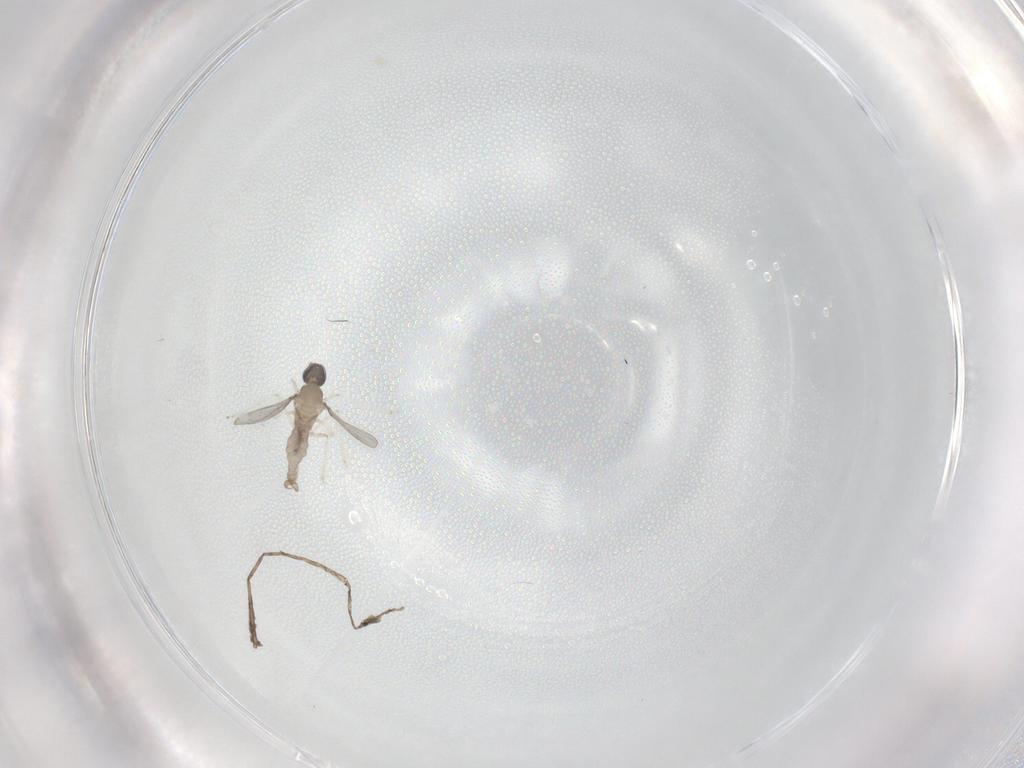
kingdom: Animalia
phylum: Arthropoda
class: Insecta
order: Diptera
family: Cecidomyiidae
